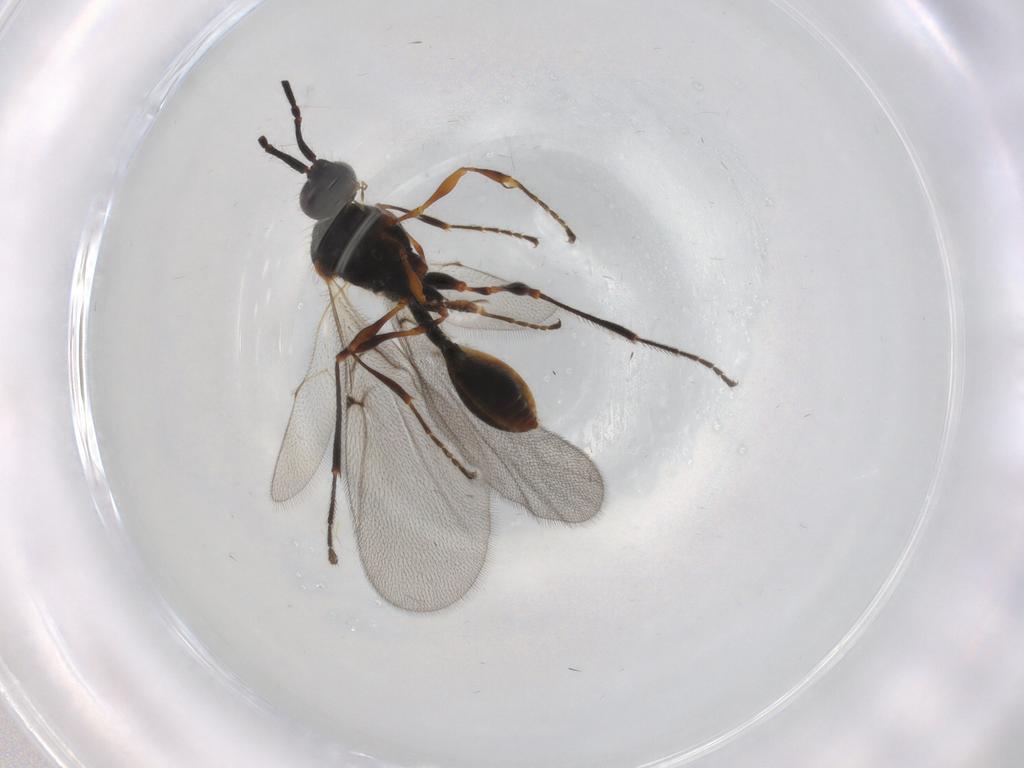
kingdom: Animalia
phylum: Arthropoda
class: Insecta
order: Hymenoptera
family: Diapriidae
